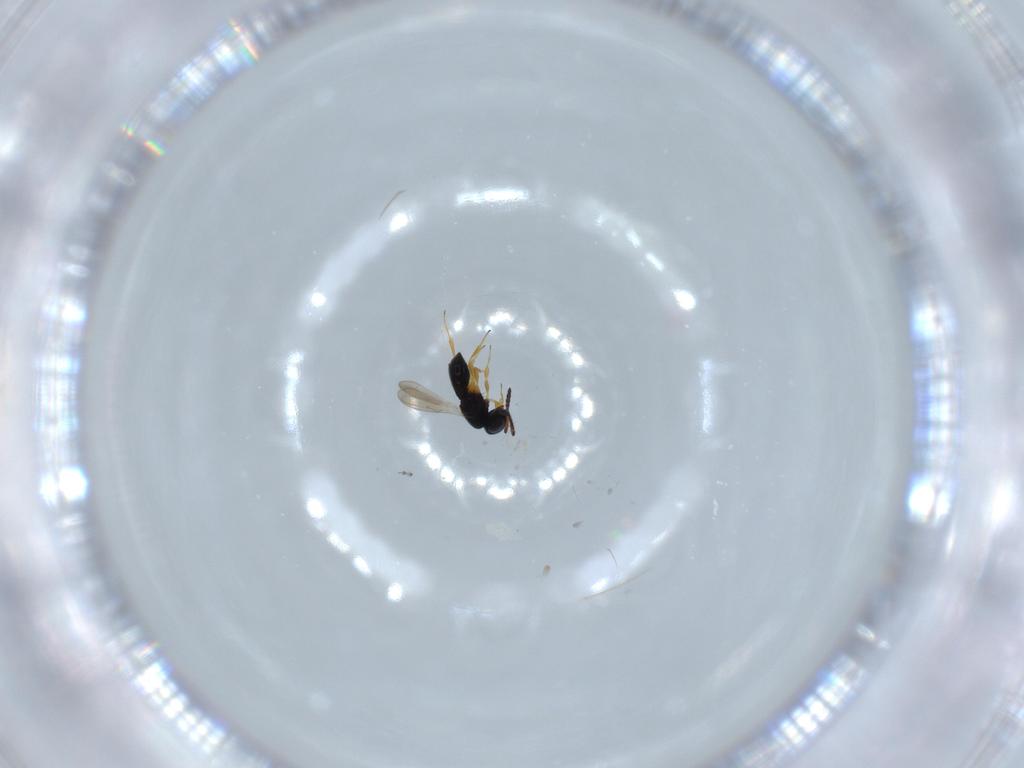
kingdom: Animalia
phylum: Arthropoda
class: Insecta
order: Hymenoptera
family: Scelionidae
